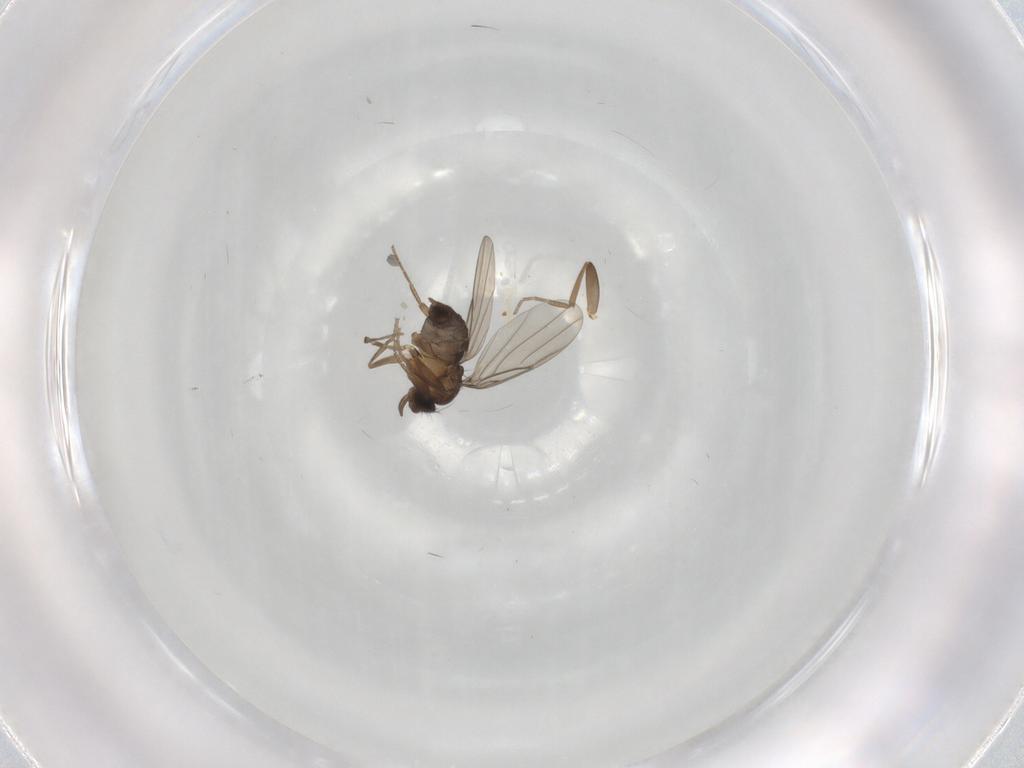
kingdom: Animalia
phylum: Arthropoda
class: Insecta
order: Diptera
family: Phoridae
